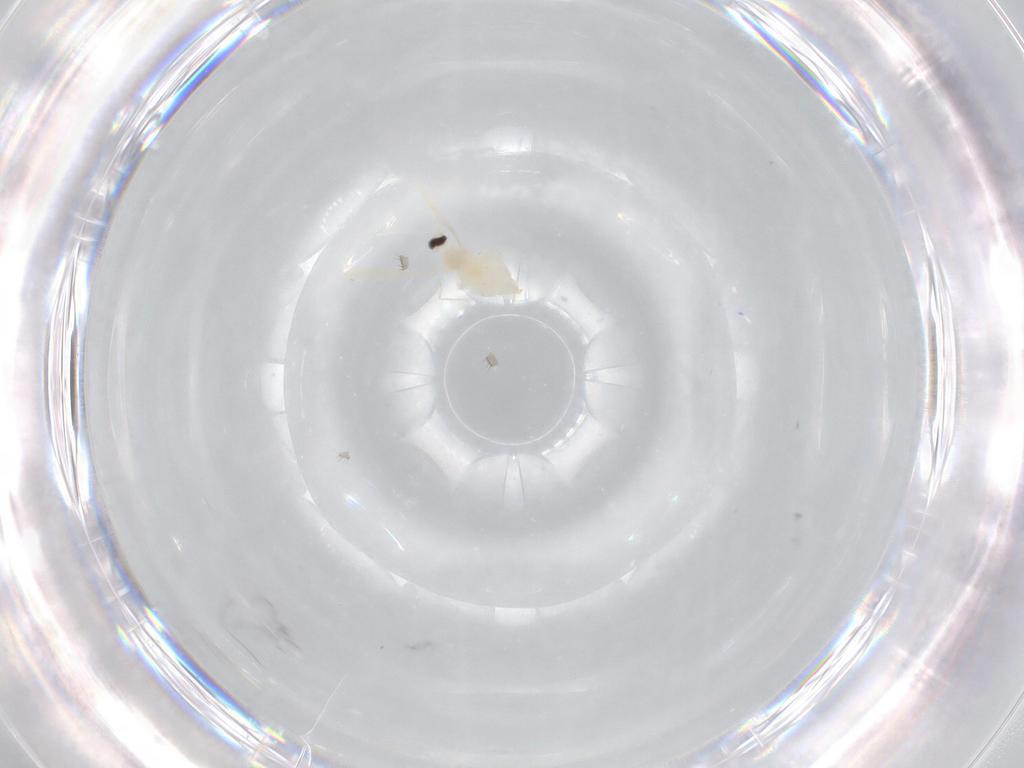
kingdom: Animalia
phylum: Arthropoda
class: Insecta
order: Diptera
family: Cecidomyiidae
